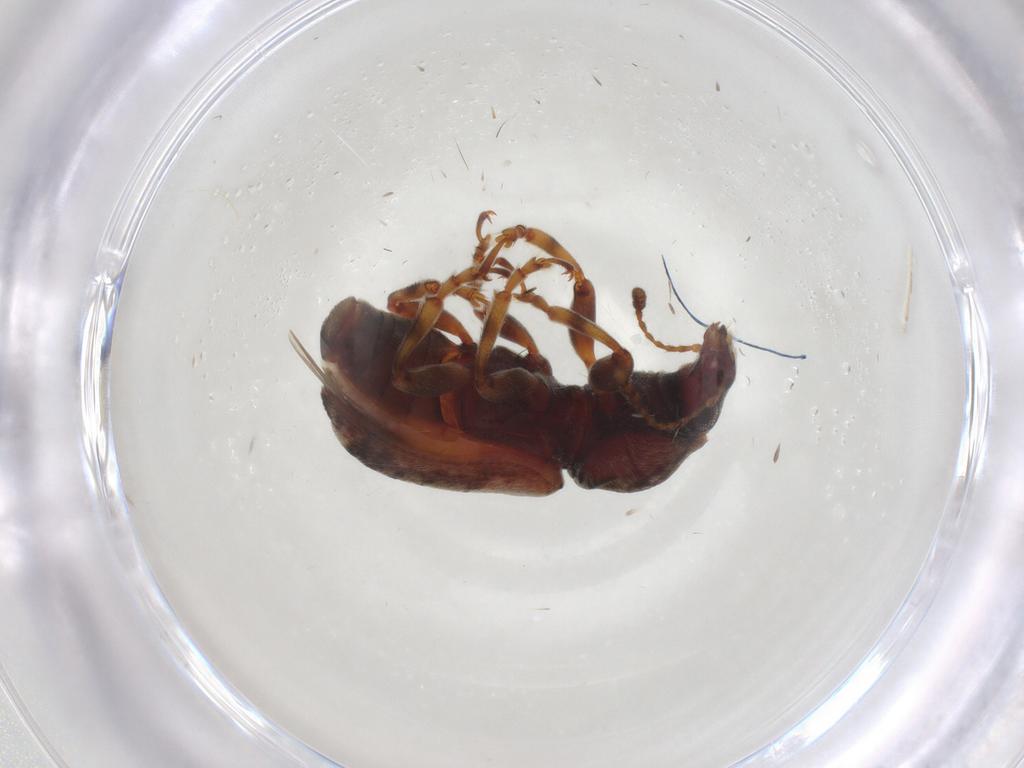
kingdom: Animalia
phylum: Arthropoda
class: Insecta
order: Coleoptera
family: Anthribidae
